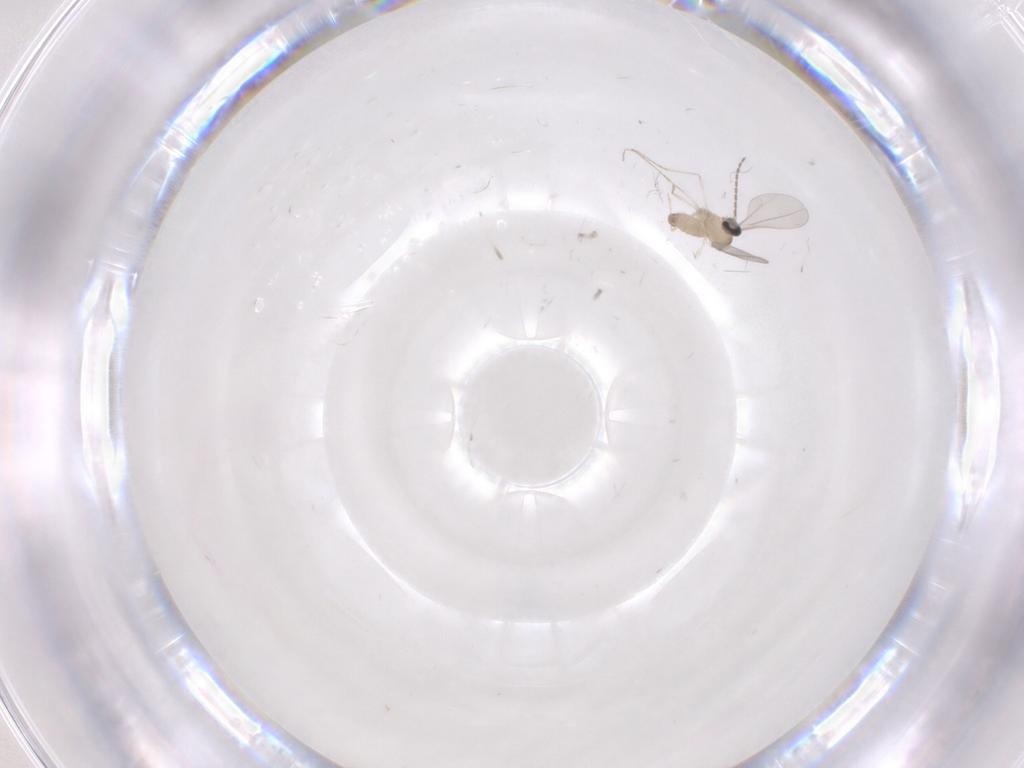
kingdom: Animalia
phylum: Arthropoda
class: Insecta
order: Diptera
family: Cecidomyiidae
